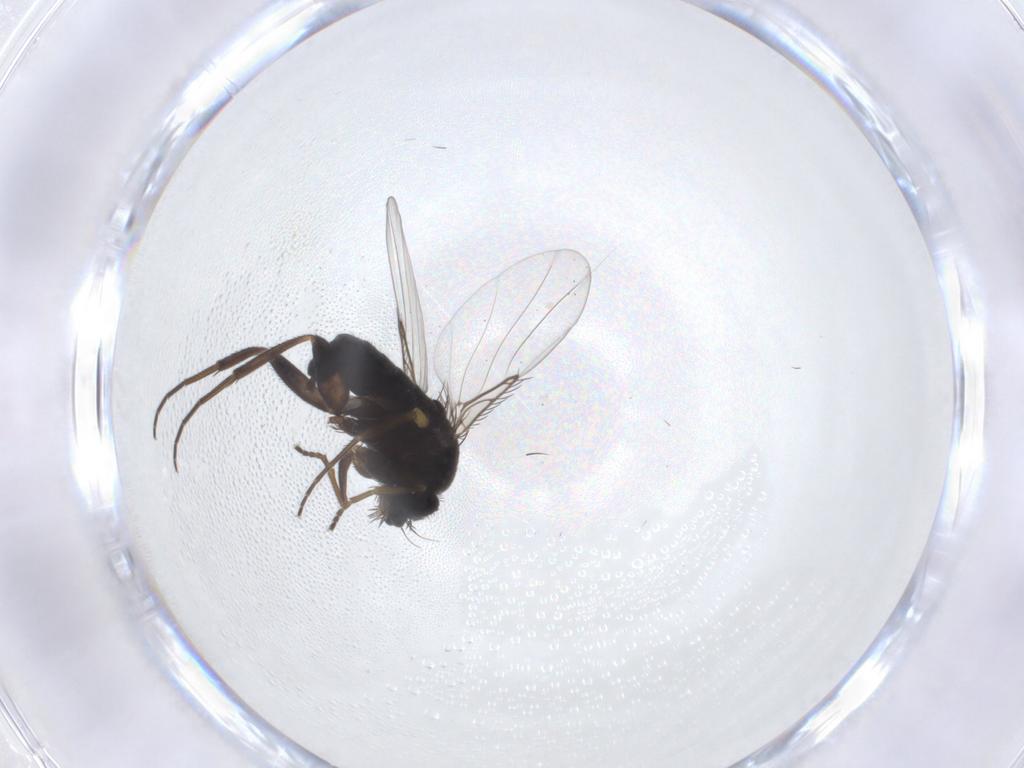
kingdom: Animalia
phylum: Arthropoda
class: Insecta
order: Diptera
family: Phoridae
